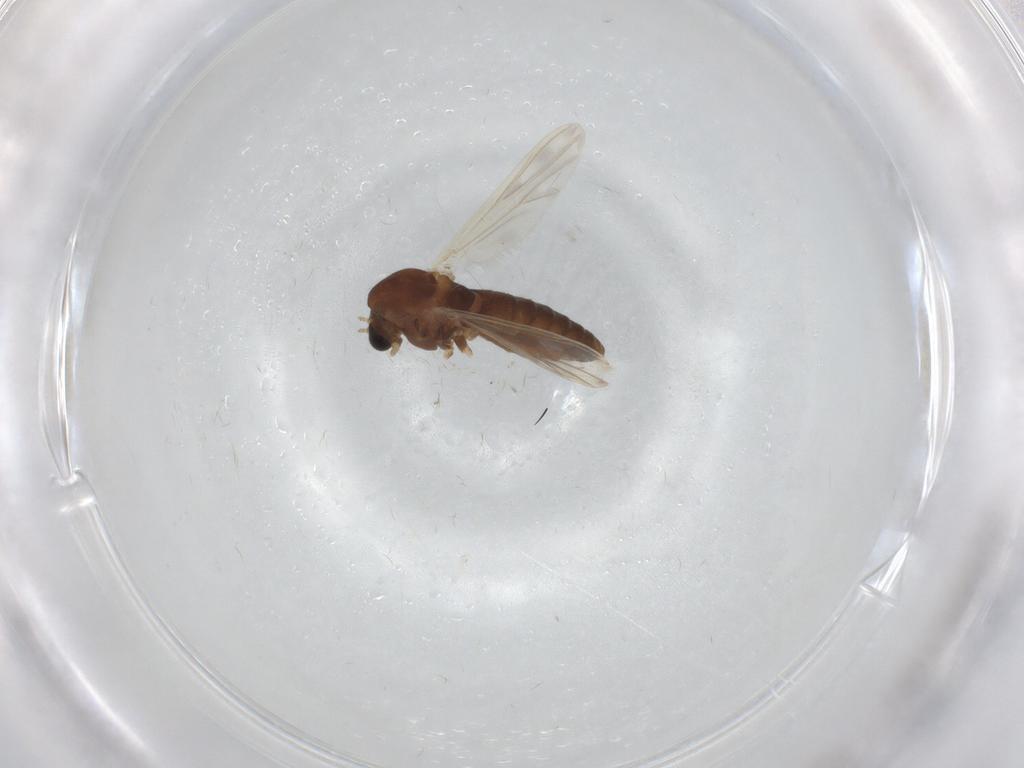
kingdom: Animalia
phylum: Arthropoda
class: Insecta
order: Diptera
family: Chironomidae
